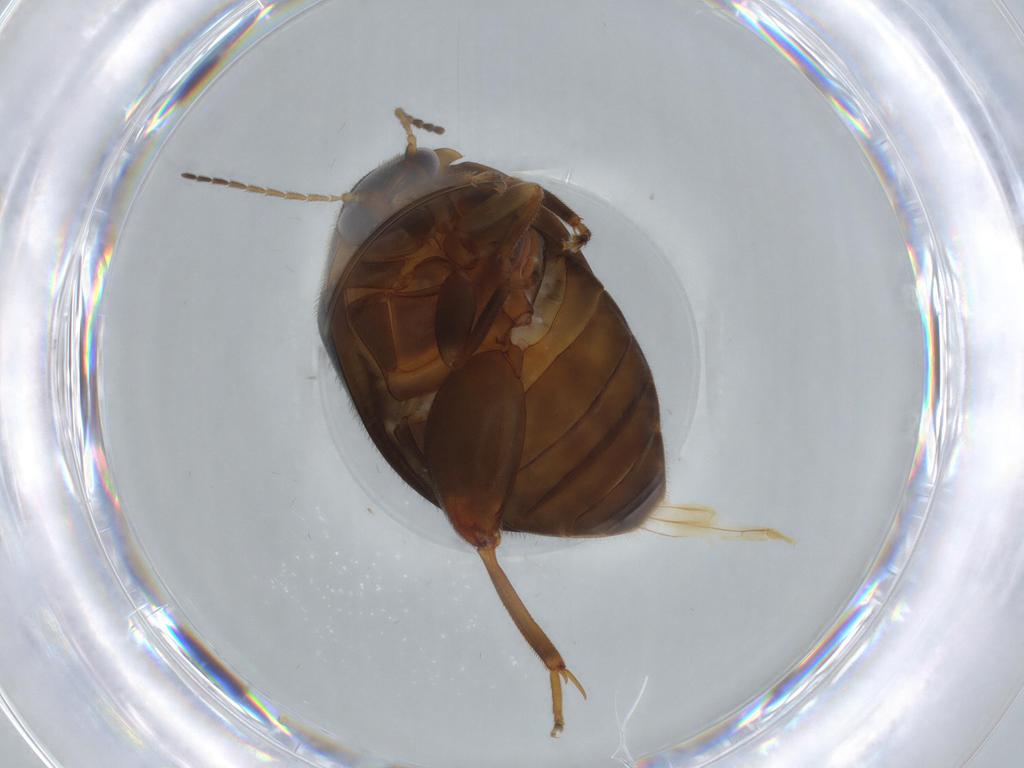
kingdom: Animalia
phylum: Arthropoda
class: Insecta
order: Coleoptera
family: Scirtidae
